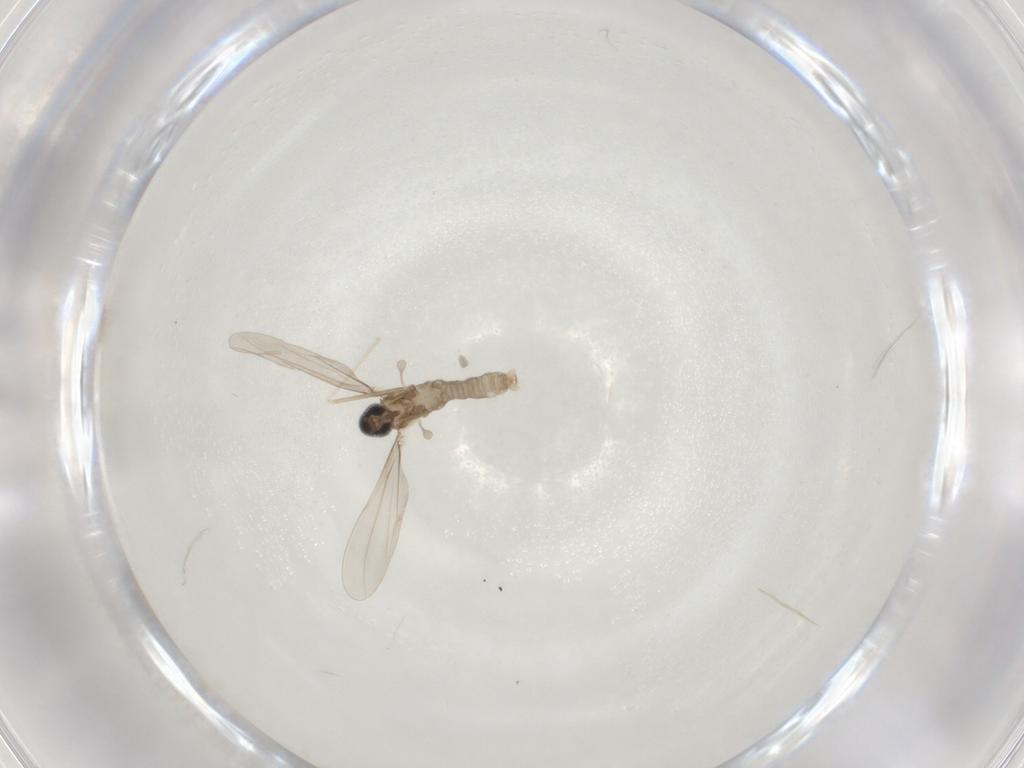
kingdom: Animalia
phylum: Arthropoda
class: Insecta
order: Diptera
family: Cecidomyiidae
